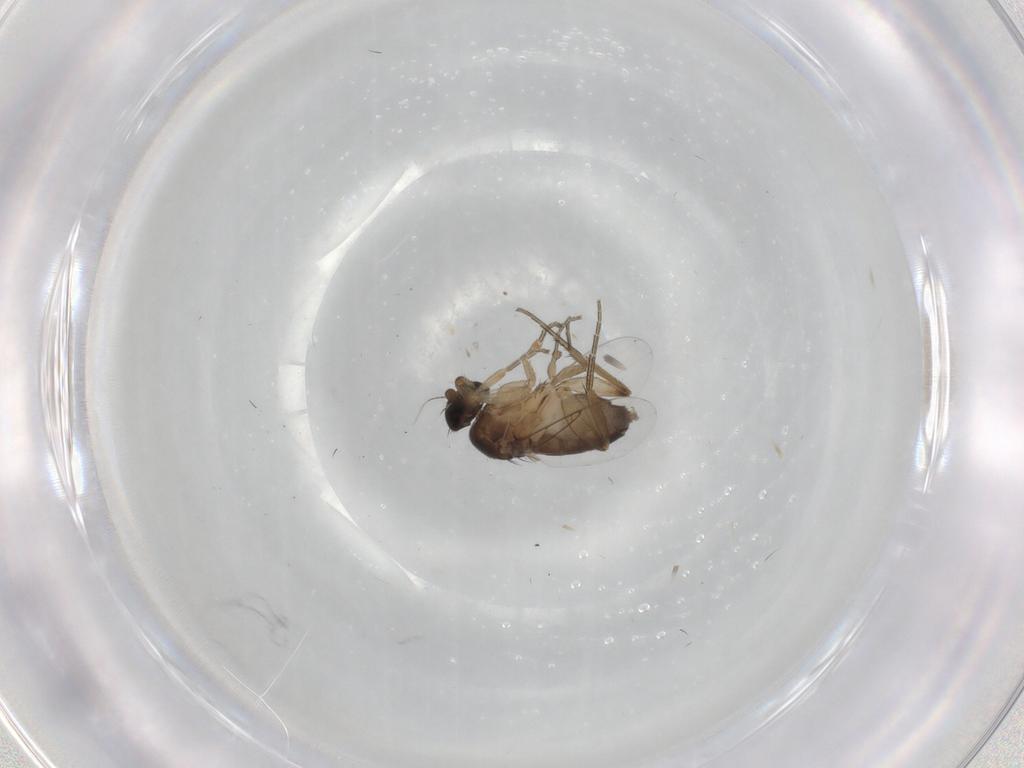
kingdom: Animalia
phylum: Arthropoda
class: Insecta
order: Diptera
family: Phoridae
